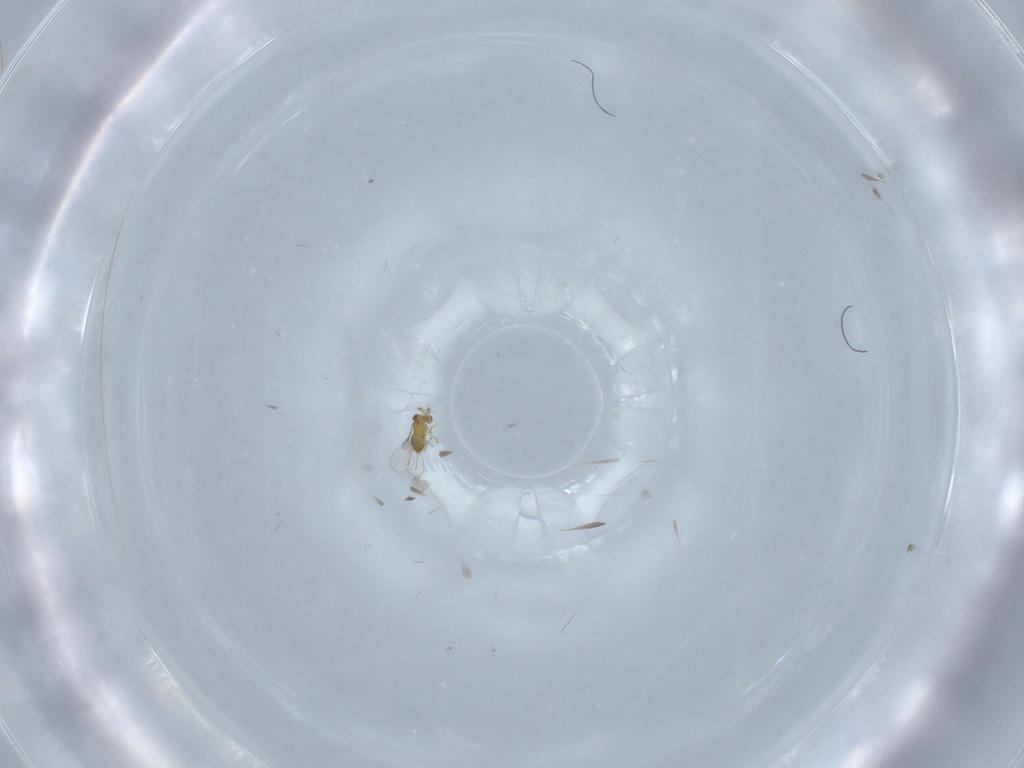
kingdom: Animalia
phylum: Arthropoda
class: Insecta
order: Hymenoptera
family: Trichogrammatidae
